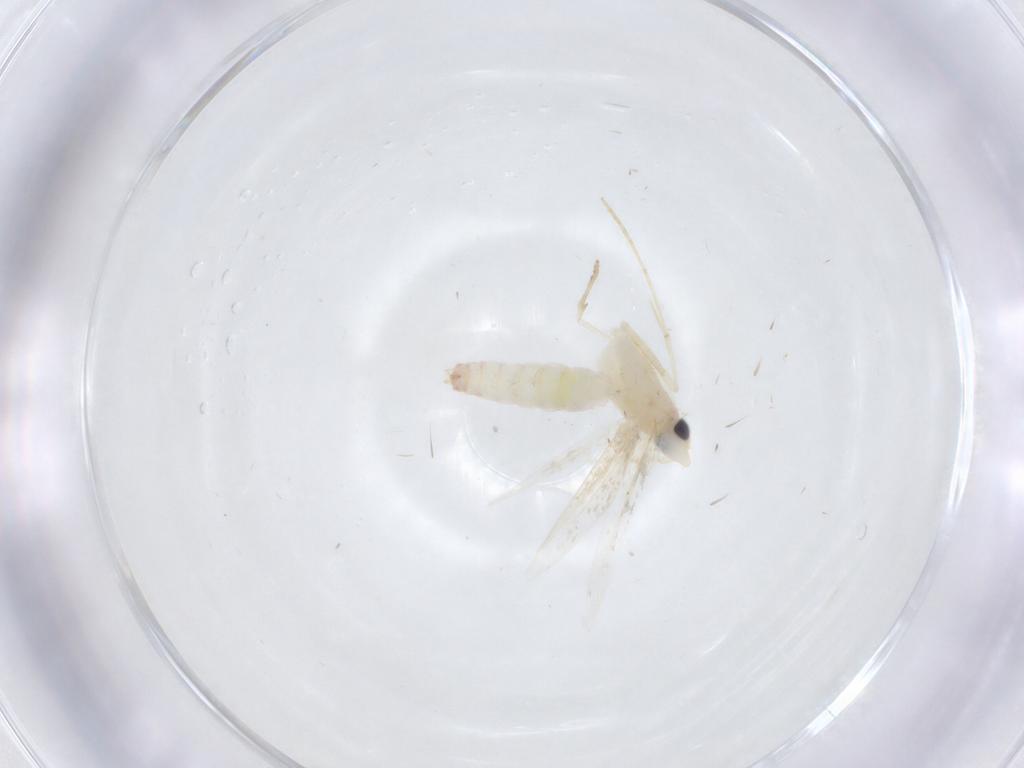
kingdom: Animalia
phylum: Arthropoda
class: Insecta
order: Lepidoptera
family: Tineidae
